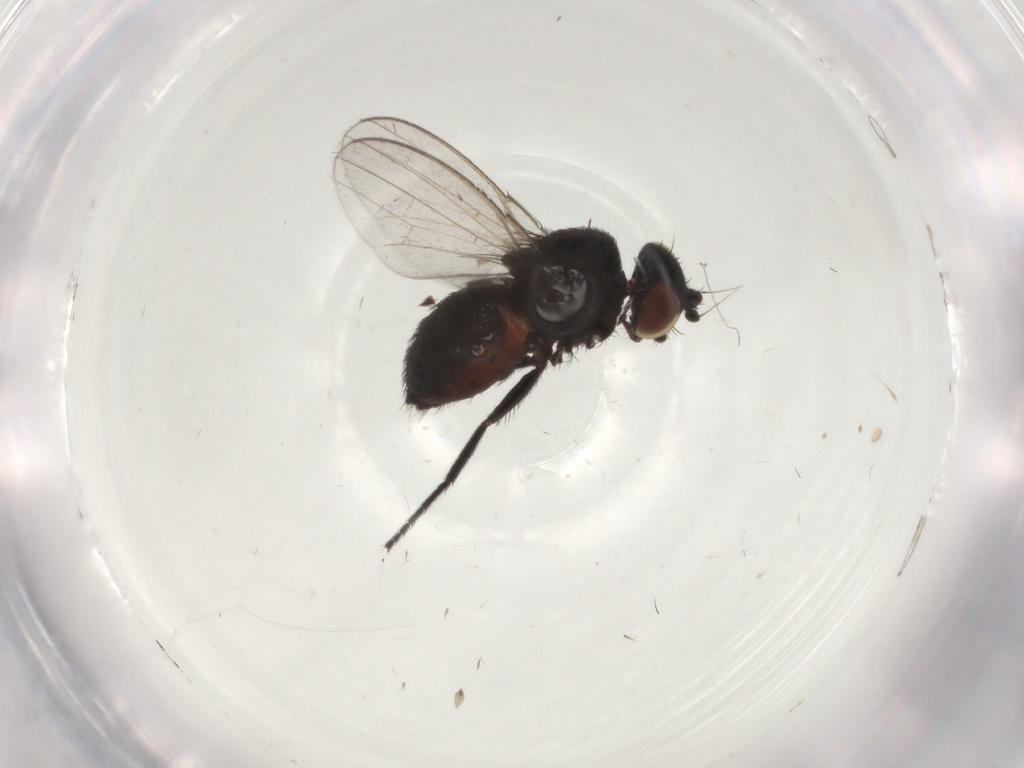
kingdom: Animalia
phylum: Arthropoda
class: Insecta
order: Diptera
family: Milichiidae
